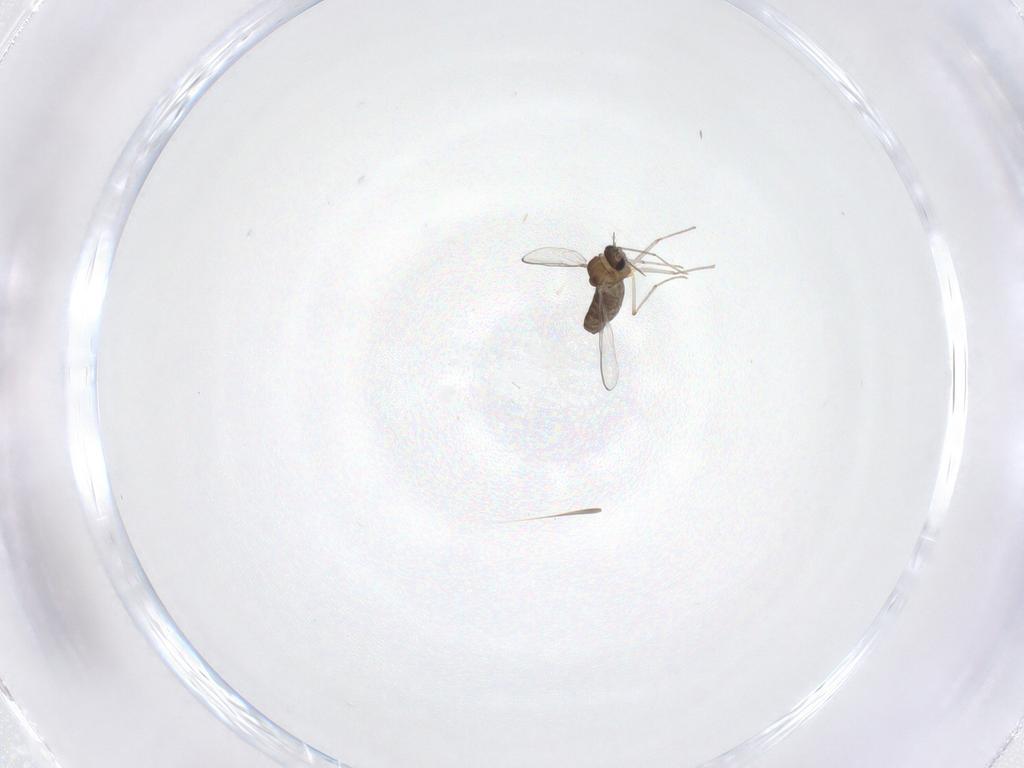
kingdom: Animalia
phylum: Arthropoda
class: Insecta
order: Diptera
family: Chironomidae
